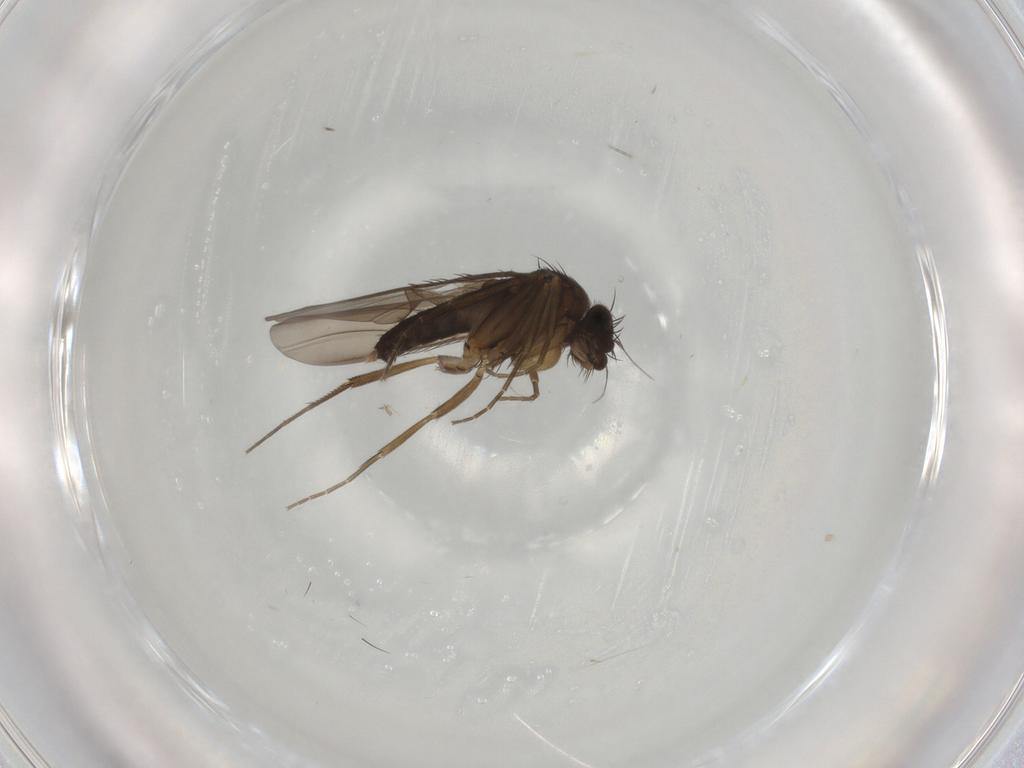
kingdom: Animalia
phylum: Arthropoda
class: Insecta
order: Diptera
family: Phoridae
